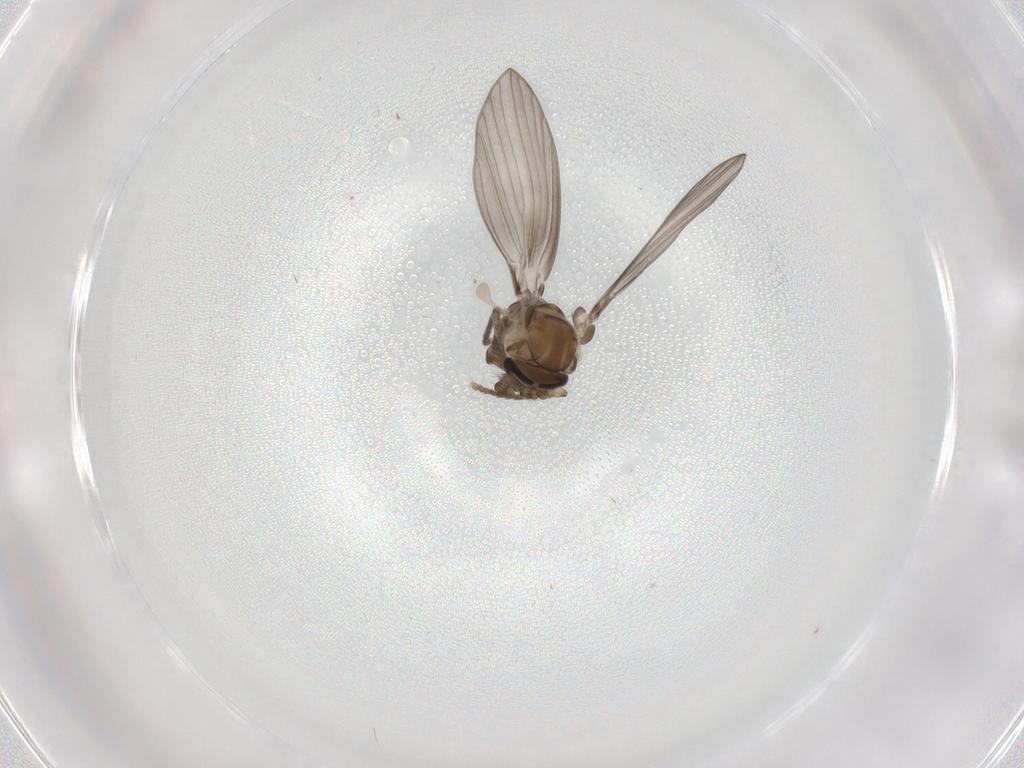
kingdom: Animalia
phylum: Arthropoda
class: Insecta
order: Diptera
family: Psychodidae
